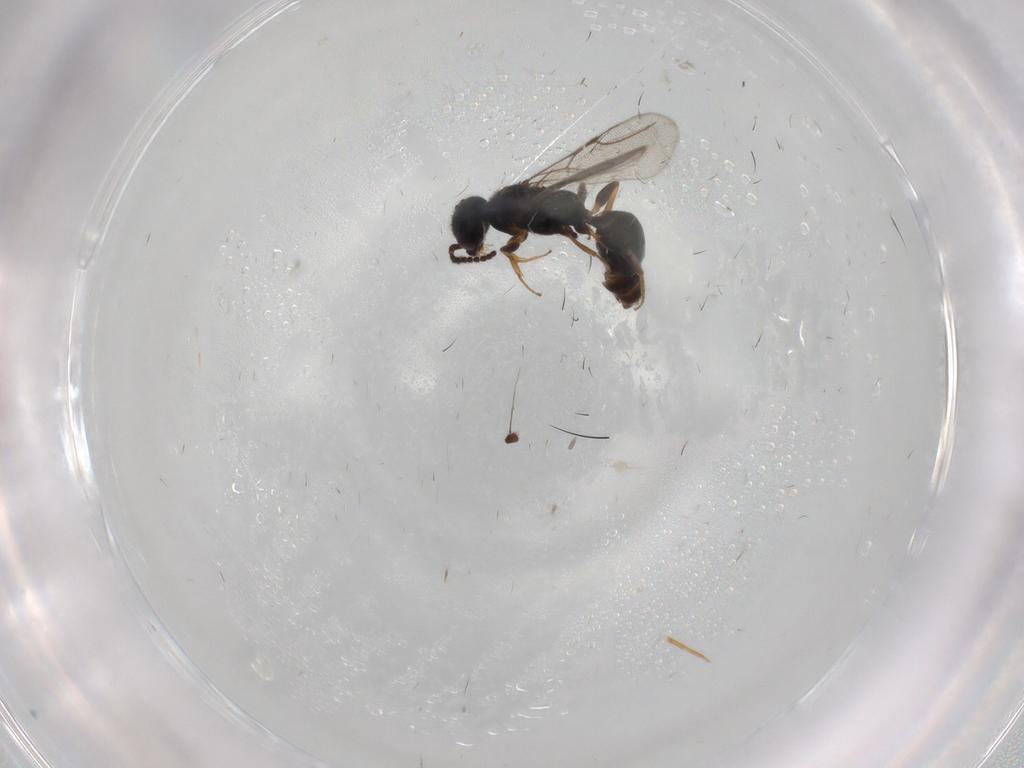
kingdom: Animalia
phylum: Arthropoda
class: Insecta
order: Hymenoptera
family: Bethylidae
